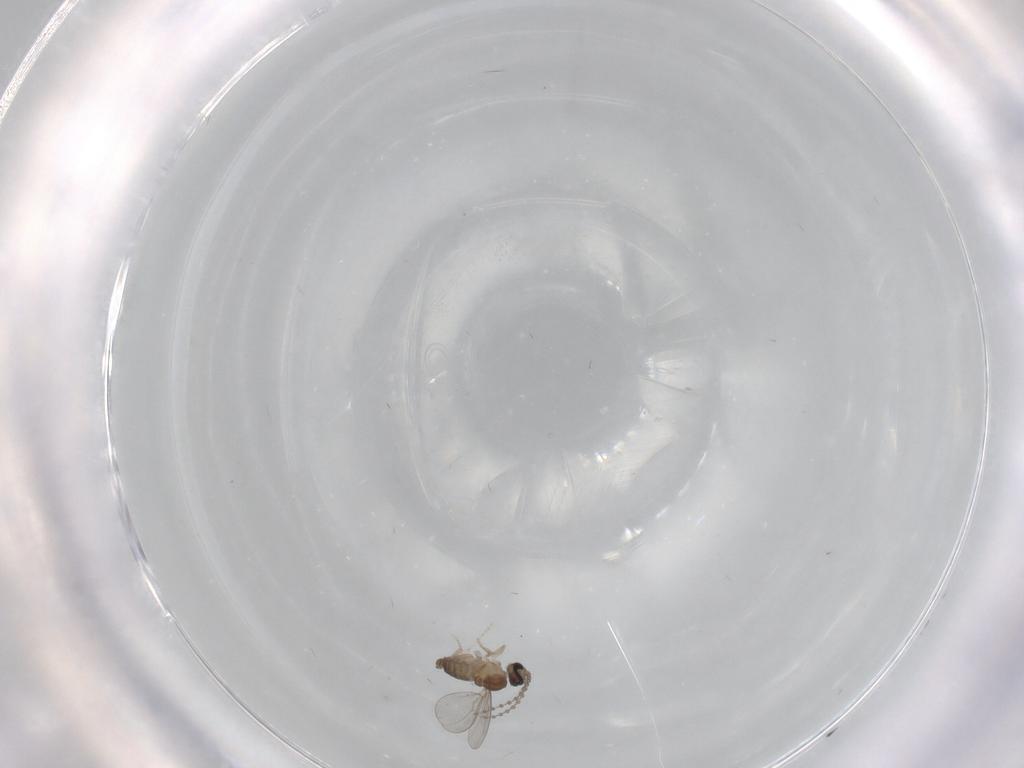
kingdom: Animalia
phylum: Arthropoda
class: Insecta
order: Diptera
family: Cecidomyiidae
